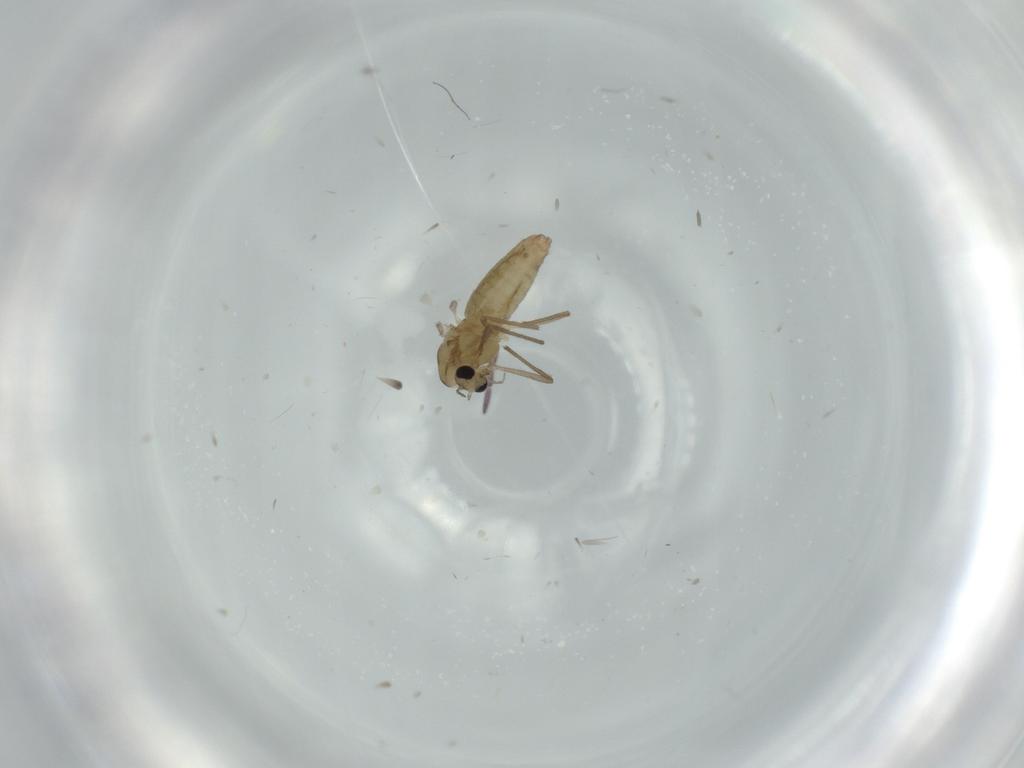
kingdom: Animalia
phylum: Arthropoda
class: Insecta
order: Diptera
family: Chironomidae
